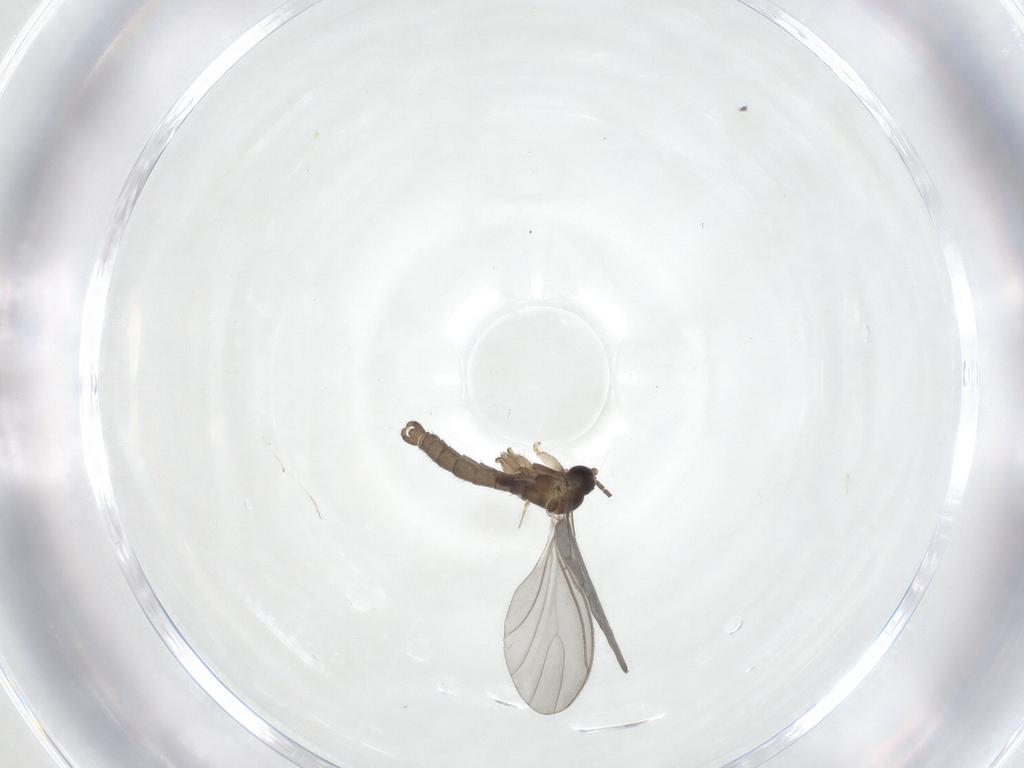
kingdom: Animalia
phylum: Arthropoda
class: Insecta
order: Diptera
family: Sciaridae
